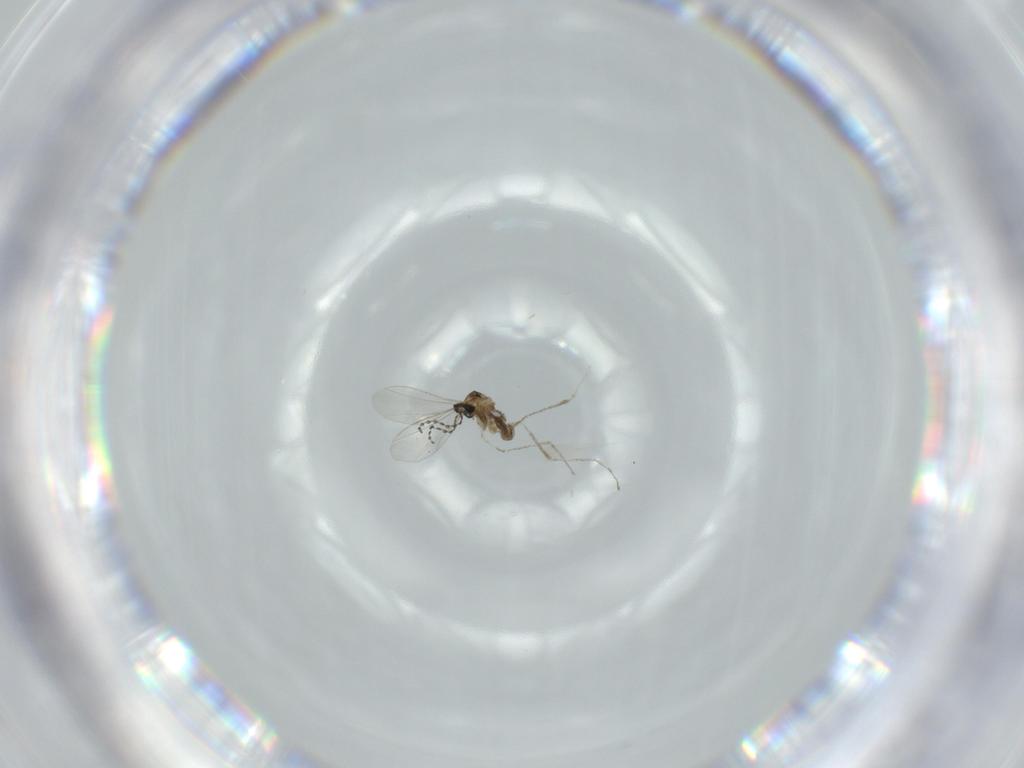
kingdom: Animalia
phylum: Arthropoda
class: Insecta
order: Diptera
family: Cecidomyiidae
